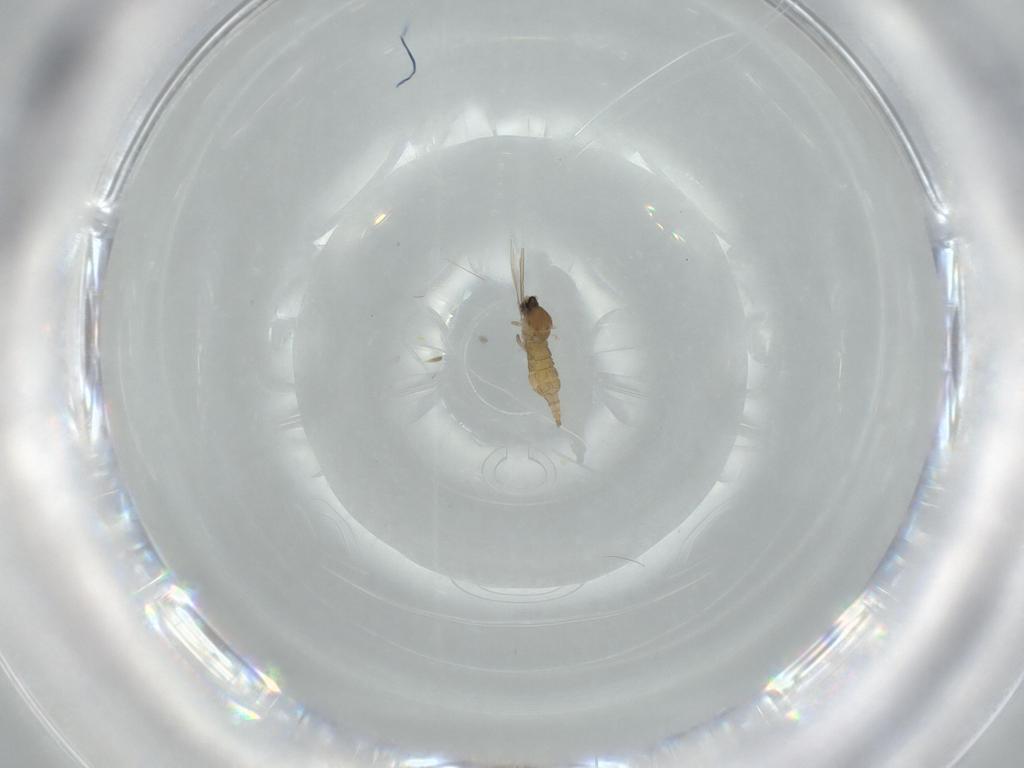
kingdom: Animalia
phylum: Arthropoda
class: Insecta
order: Diptera
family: Cecidomyiidae
